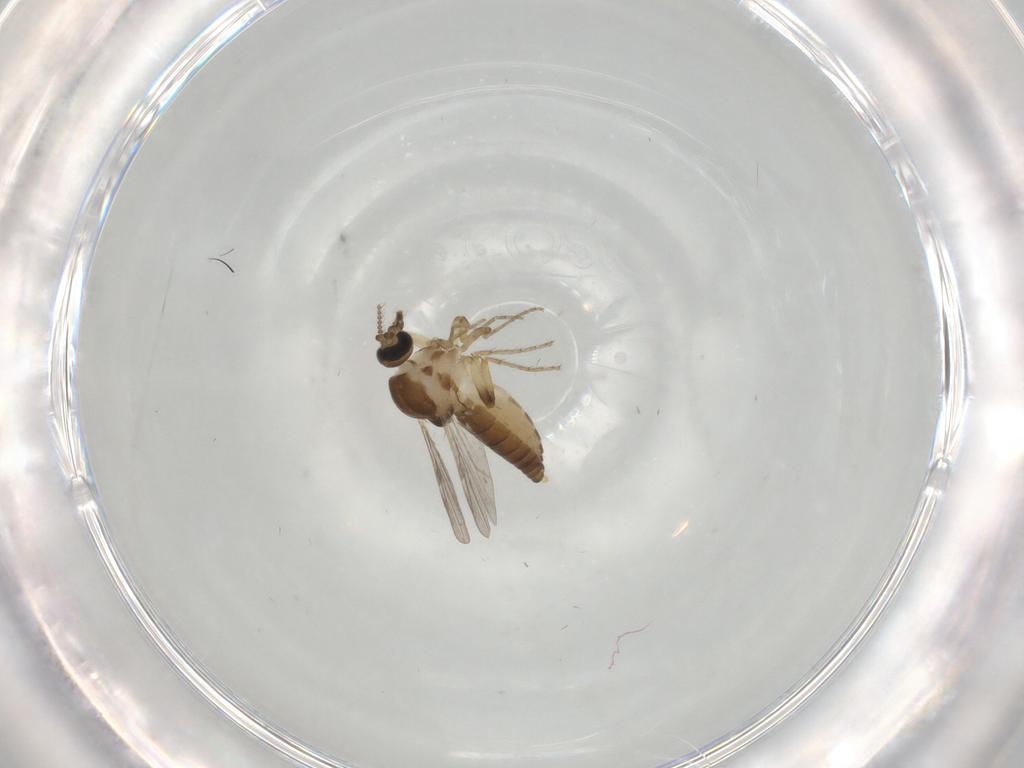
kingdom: Animalia
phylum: Arthropoda
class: Insecta
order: Diptera
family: Ceratopogonidae
